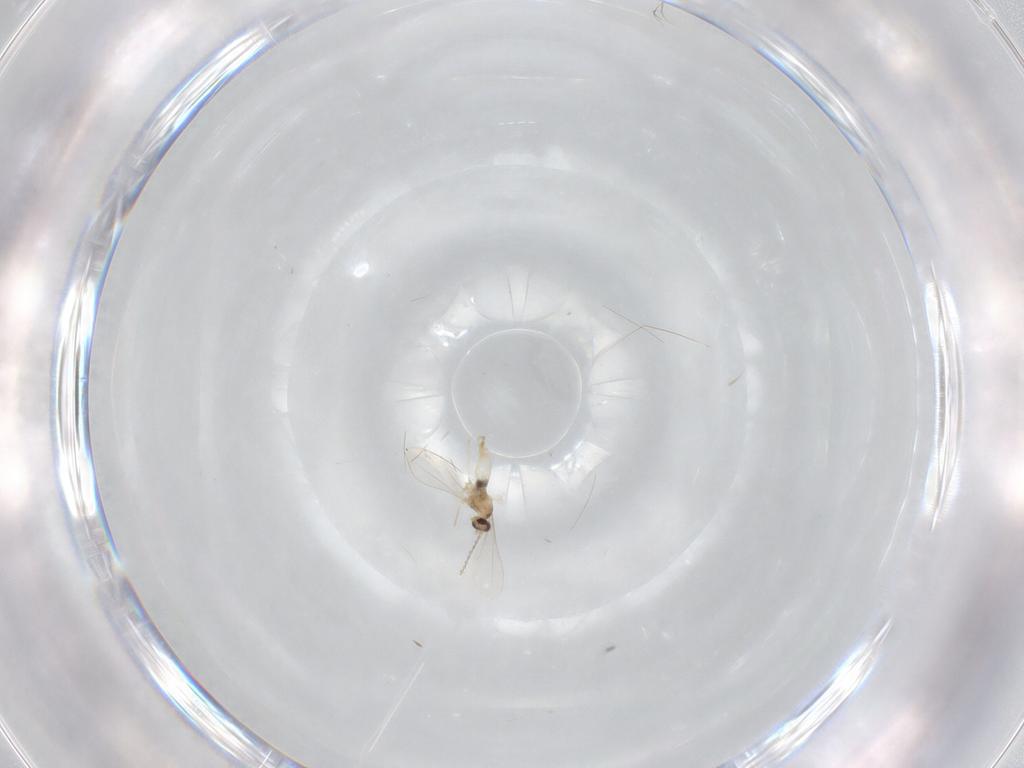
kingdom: Animalia
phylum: Arthropoda
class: Insecta
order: Diptera
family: Cecidomyiidae
